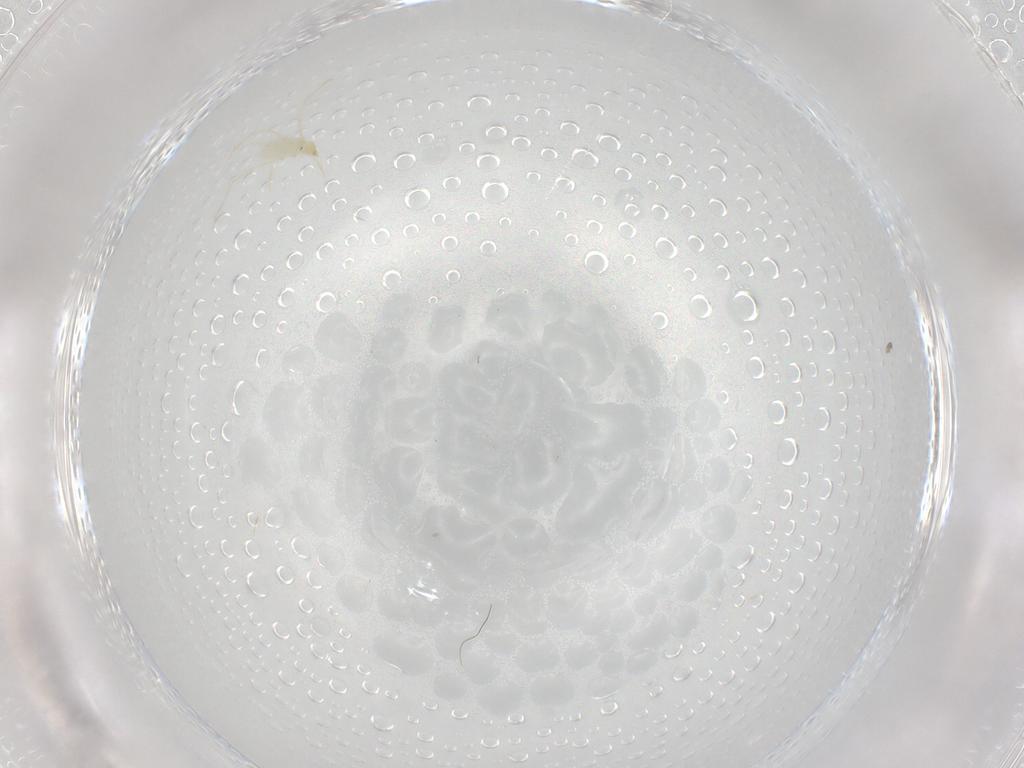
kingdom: Animalia
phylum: Arthropoda
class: Arachnida
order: Trombidiformes
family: Erythraeidae
